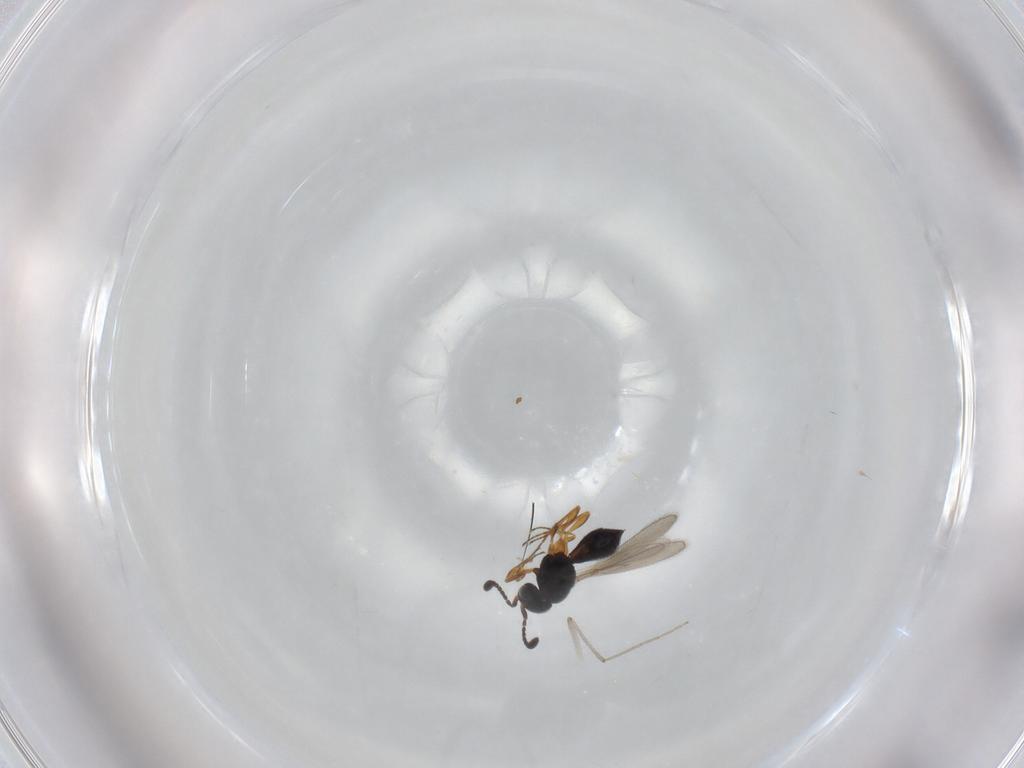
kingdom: Animalia
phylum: Arthropoda
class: Insecta
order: Hymenoptera
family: Scelionidae
